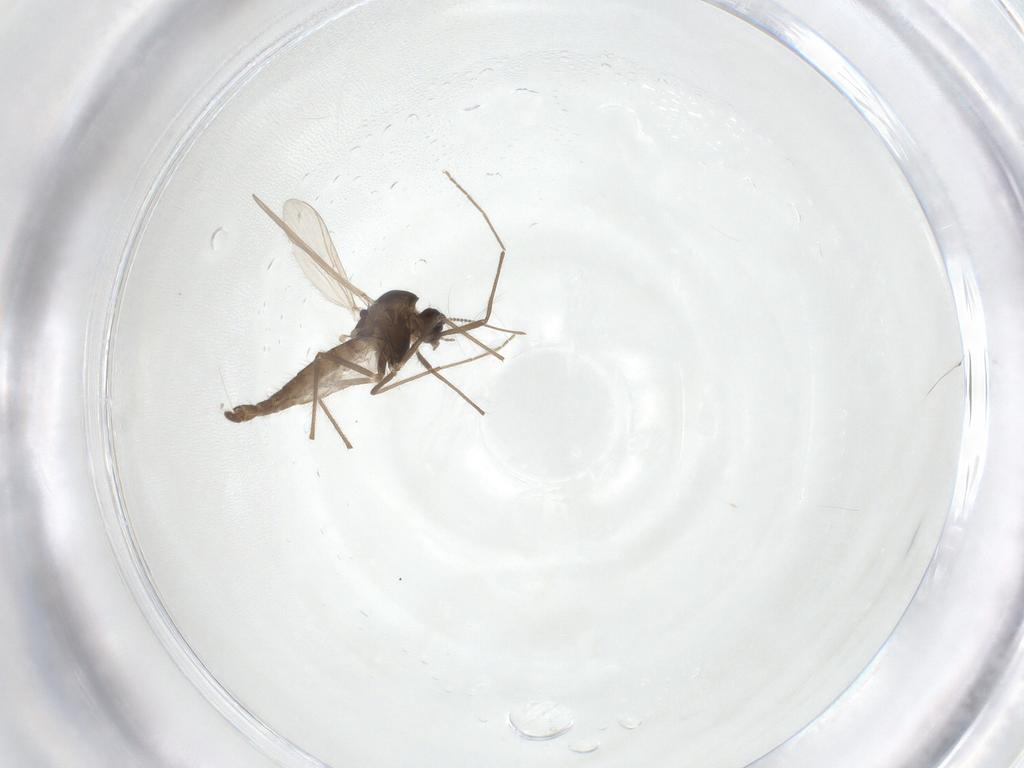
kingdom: Animalia
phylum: Arthropoda
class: Insecta
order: Diptera
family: Chironomidae
